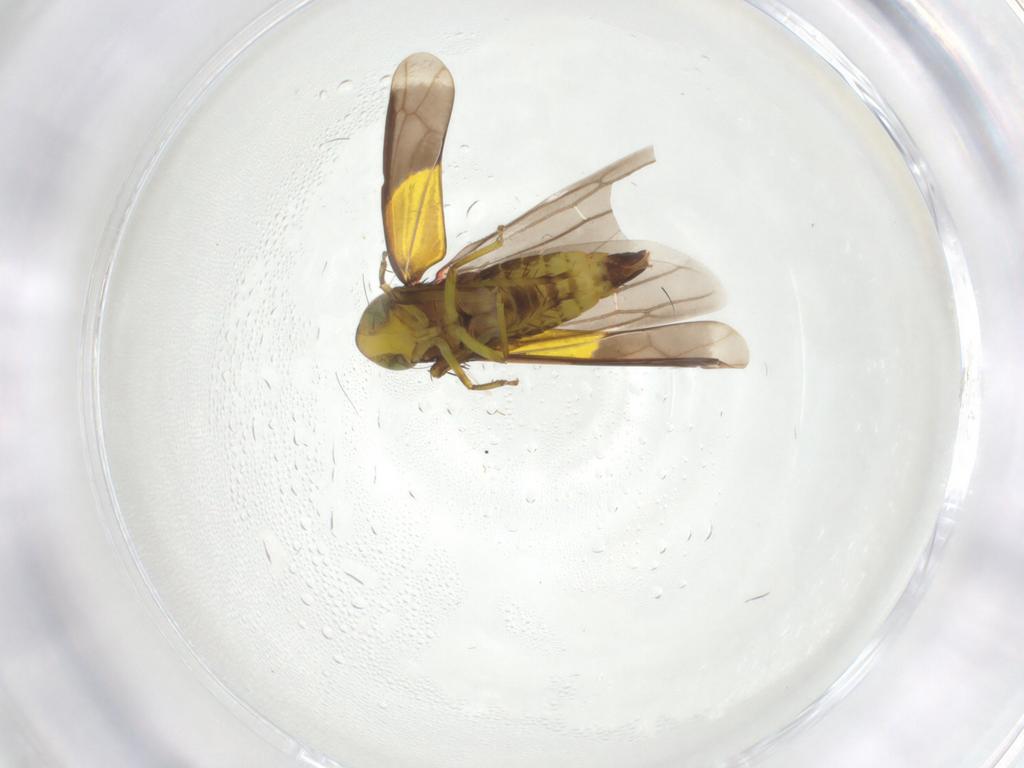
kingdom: Animalia
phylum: Arthropoda
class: Insecta
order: Hemiptera
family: Cicadellidae
